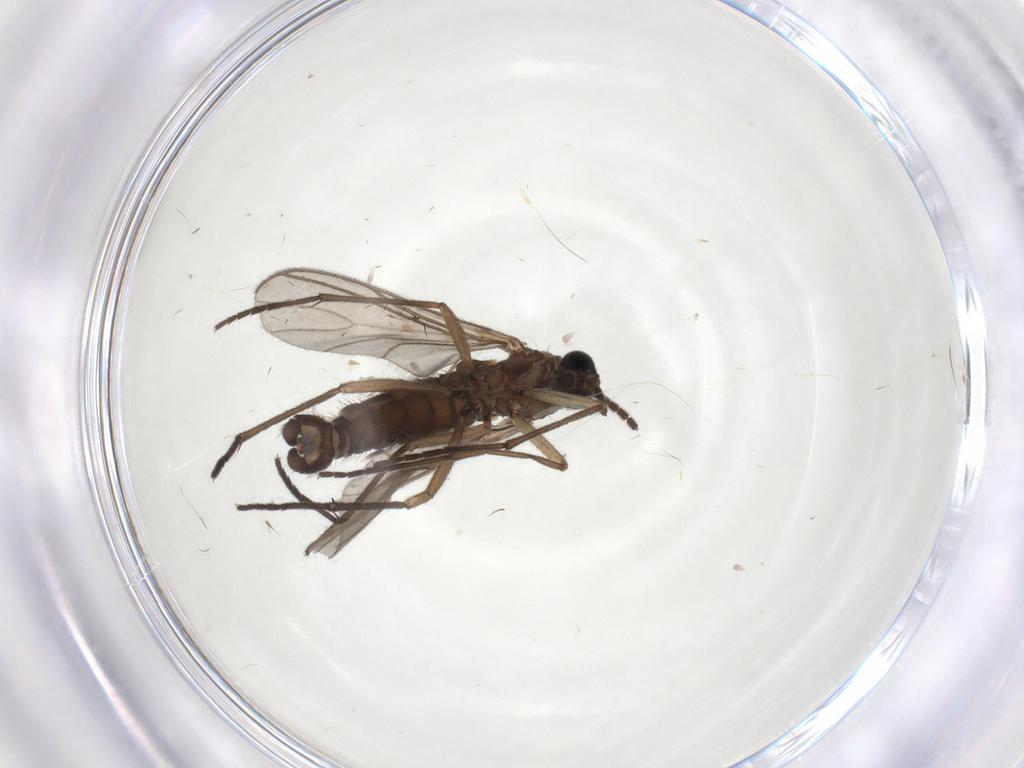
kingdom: Animalia
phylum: Arthropoda
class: Insecta
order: Diptera
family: Sciaridae
